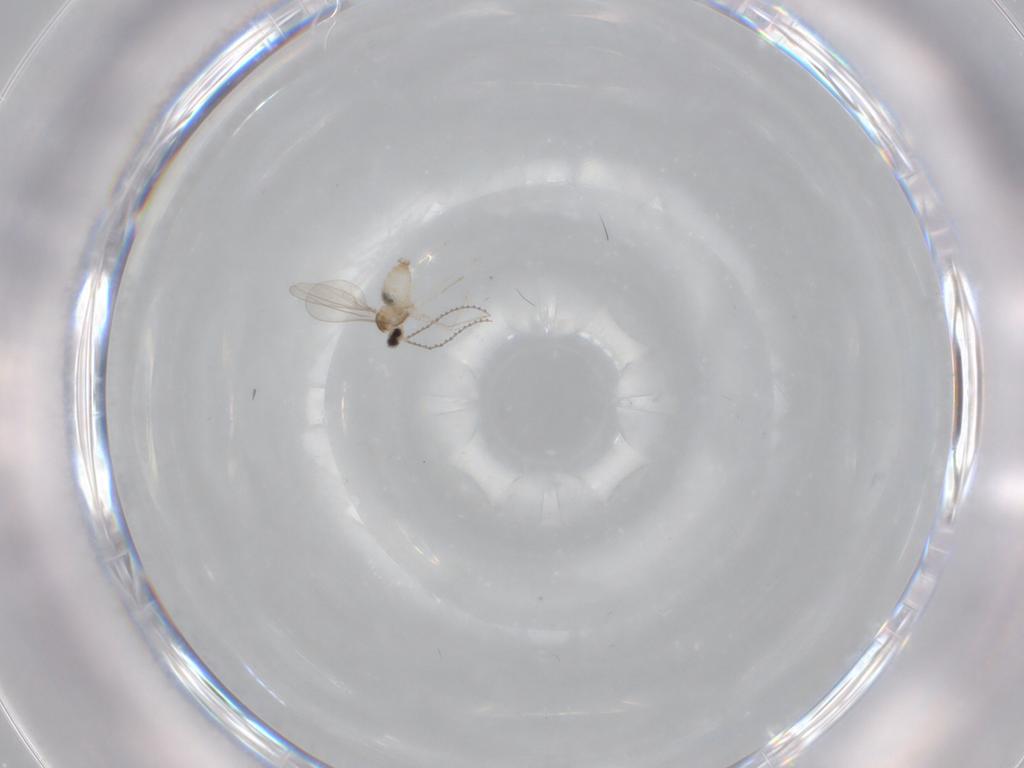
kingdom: Animalia
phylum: Arthropoda
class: Insecta
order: Diptera
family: Cecidomyiidae
